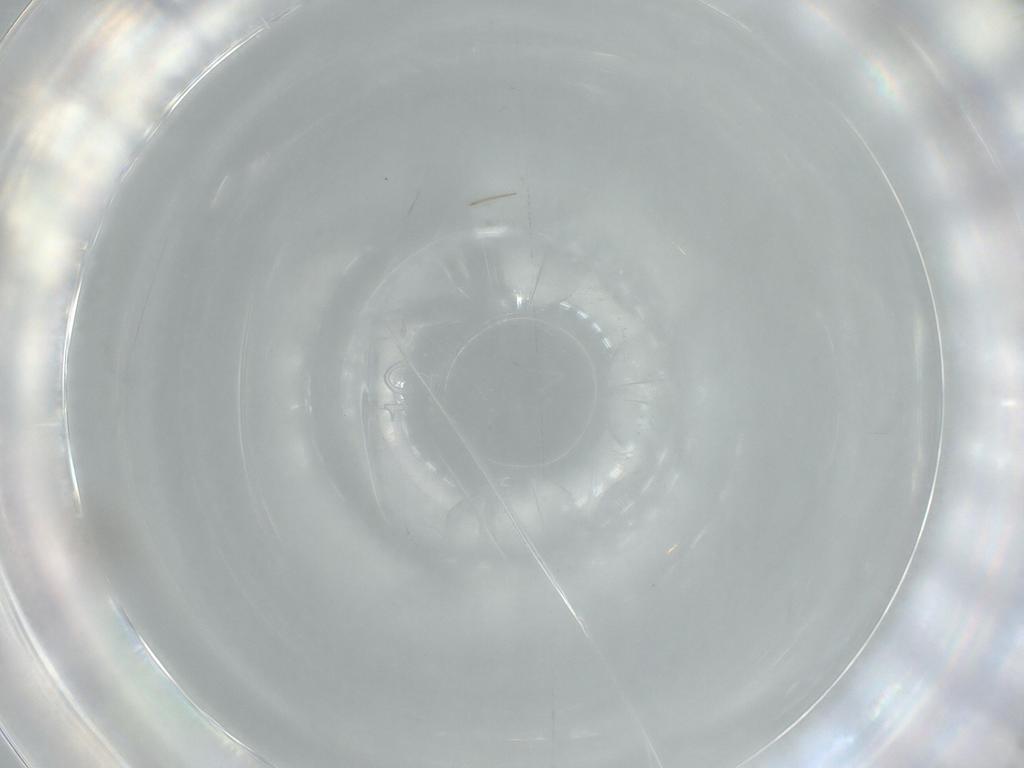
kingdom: Animalia
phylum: Arthropoda
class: Insecta
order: Diptera
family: Sciaridae
